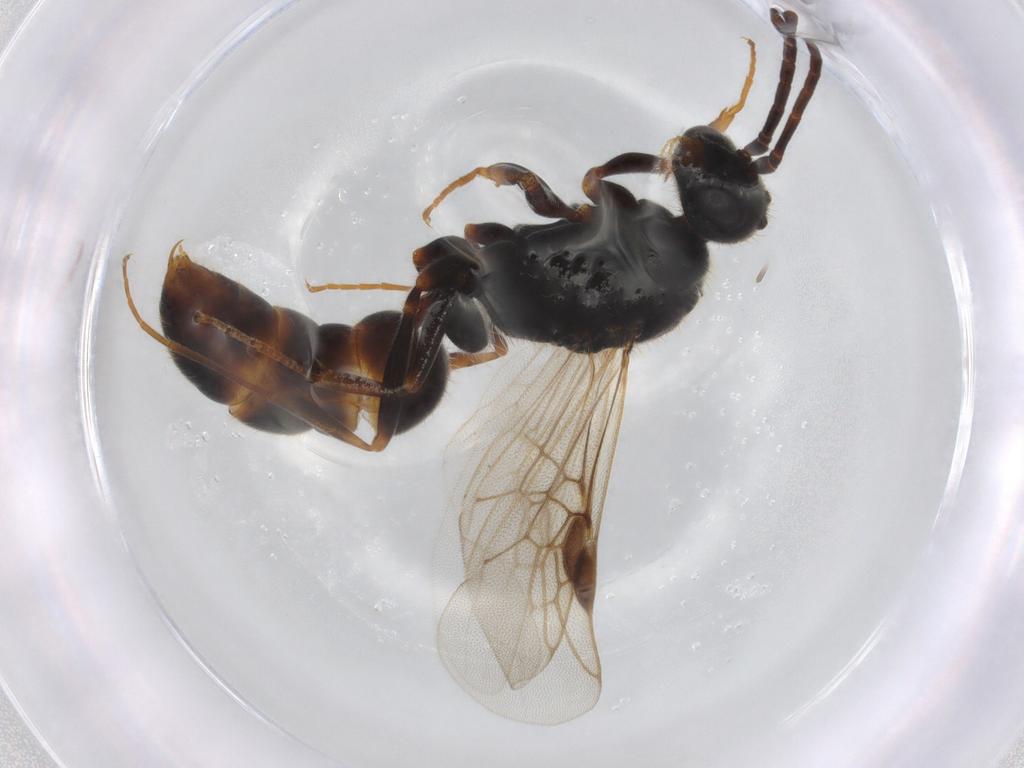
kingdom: Animalia
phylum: Arthropoda
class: Insecta
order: Hymenoptera
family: Formicidae
